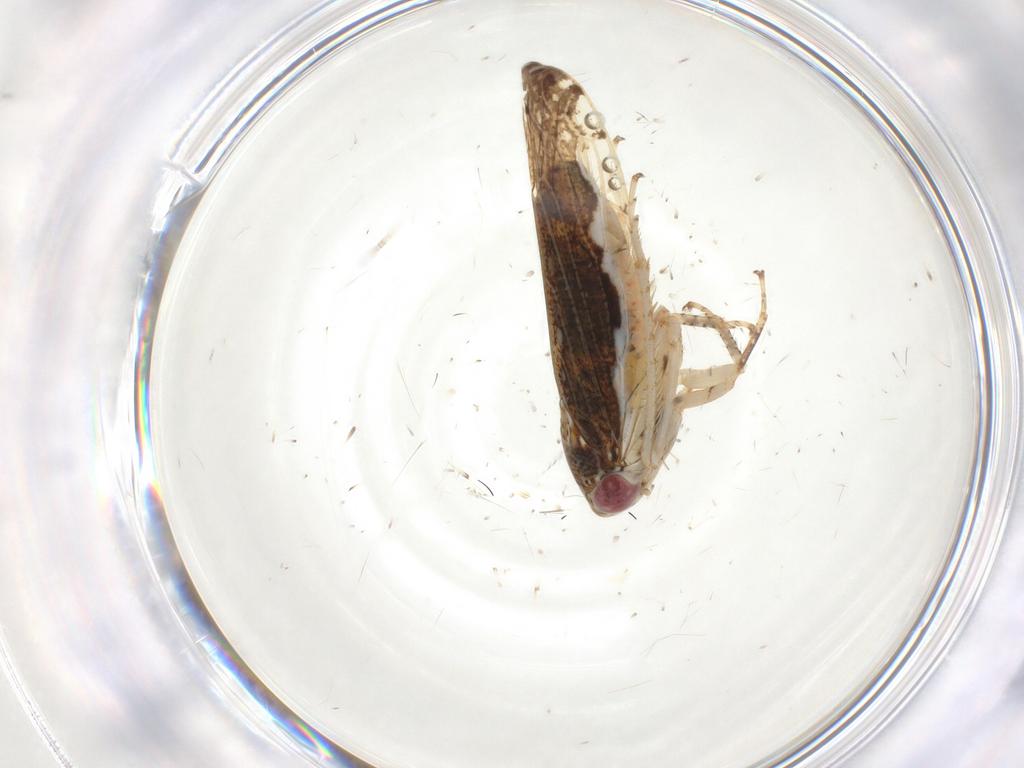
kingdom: Animalia
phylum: Arthropoda
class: Insecta
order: Hemiptera
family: Cicadellidae
